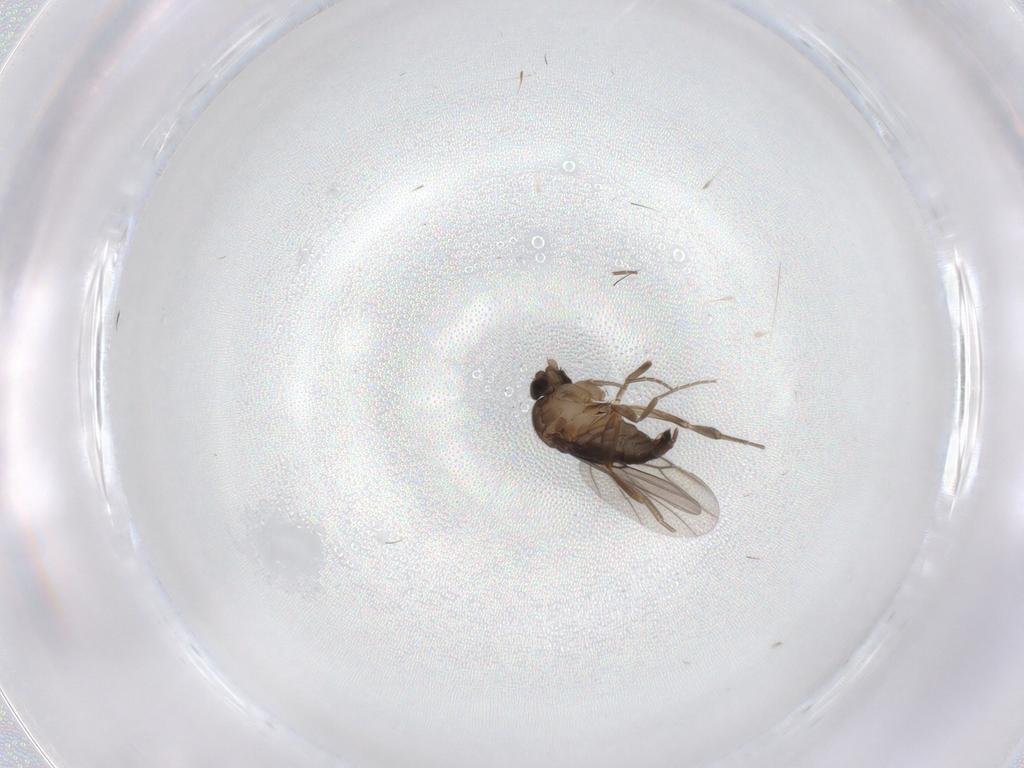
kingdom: Animalia
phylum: Arthropoda
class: Insecta
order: Diptera
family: Phoridae
